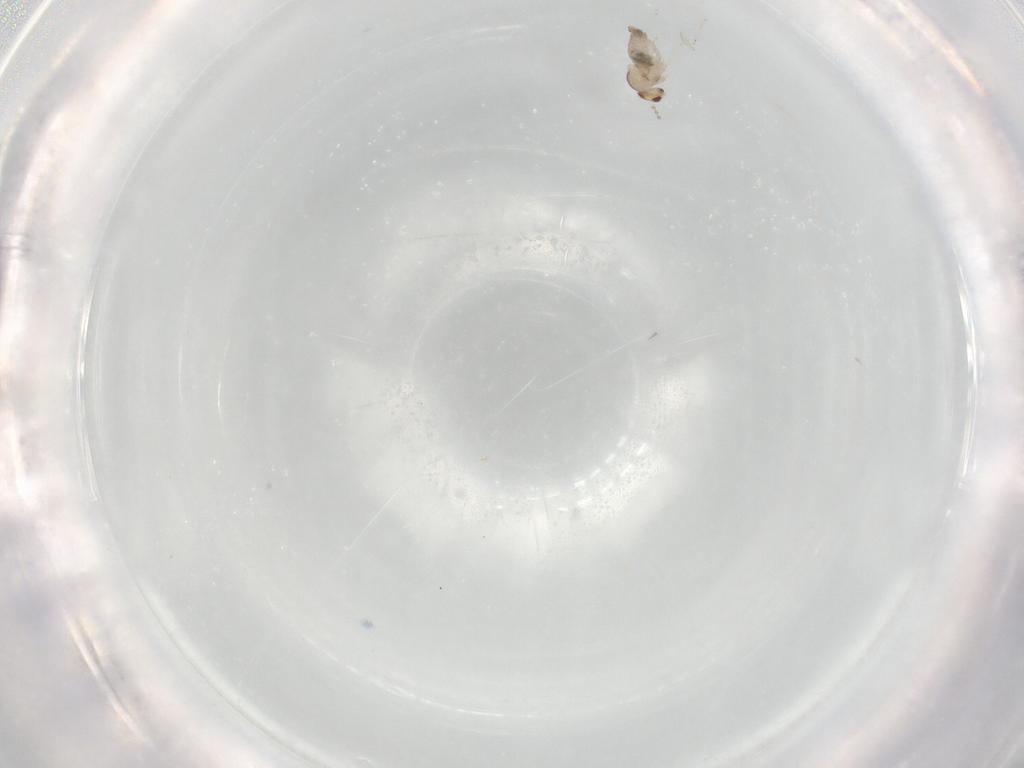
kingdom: Animalia
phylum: Arthropoda
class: Insecta
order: Diptera
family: Cecidomyiidae
